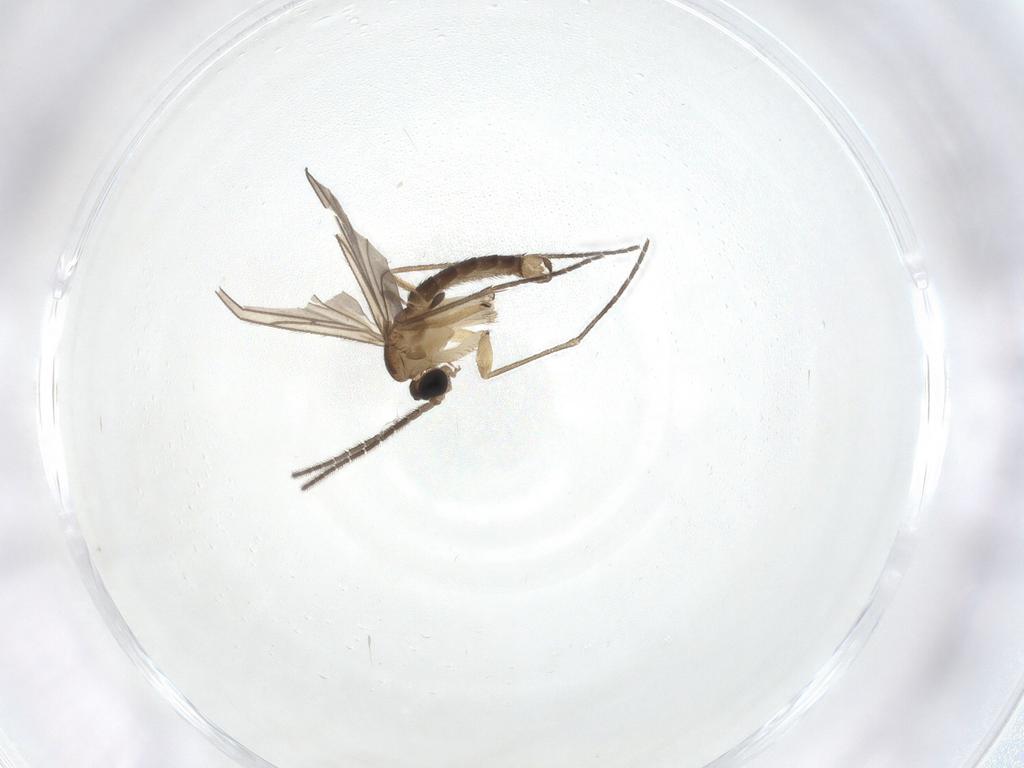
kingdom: Animalia
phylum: Arthropoda
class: Insecta
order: Diptera
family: Sciaridae
